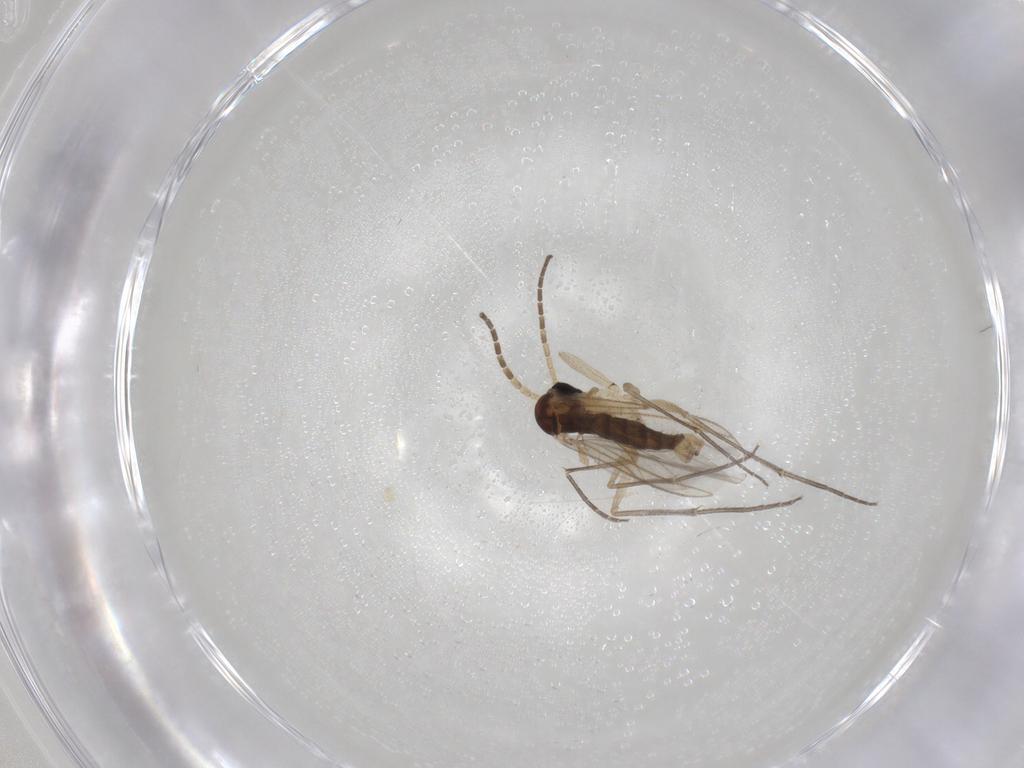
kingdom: Animalia
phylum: Arthropoda
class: Insecta
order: Diptera
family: Sciaridae
